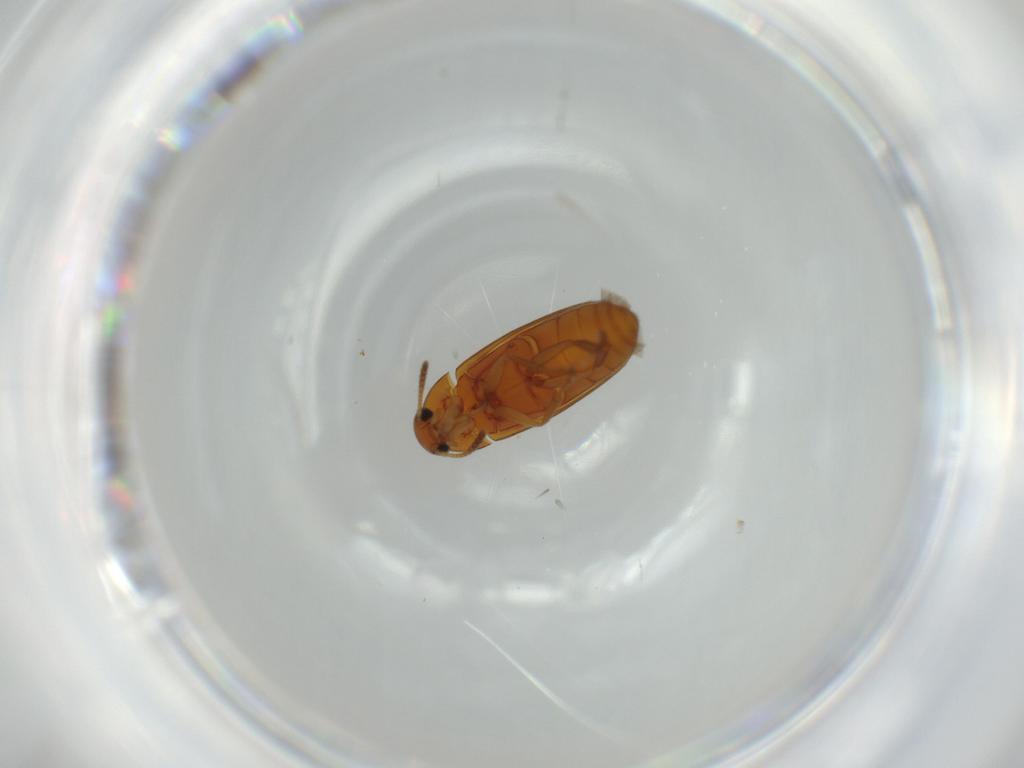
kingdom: Animalia
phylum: Arthropoda
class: Insecta
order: Coleoptera
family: Scraptiidae
